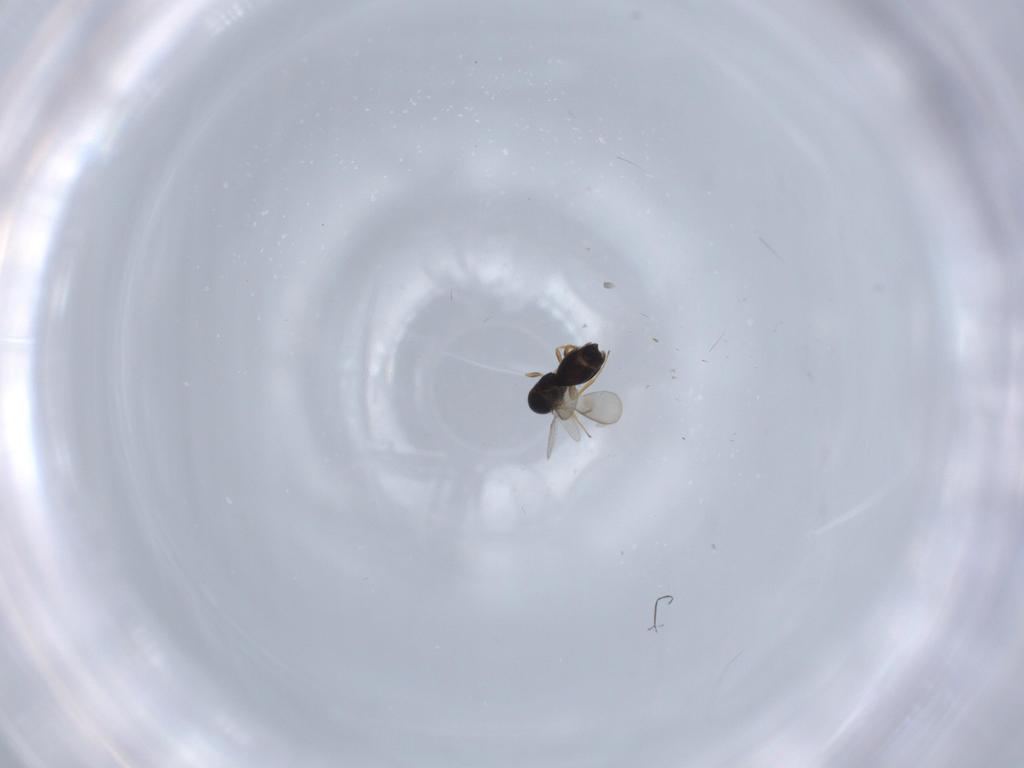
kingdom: Animalia
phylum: Arthropoda
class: Insecta
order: Hymenoptera
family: Scelionidae
